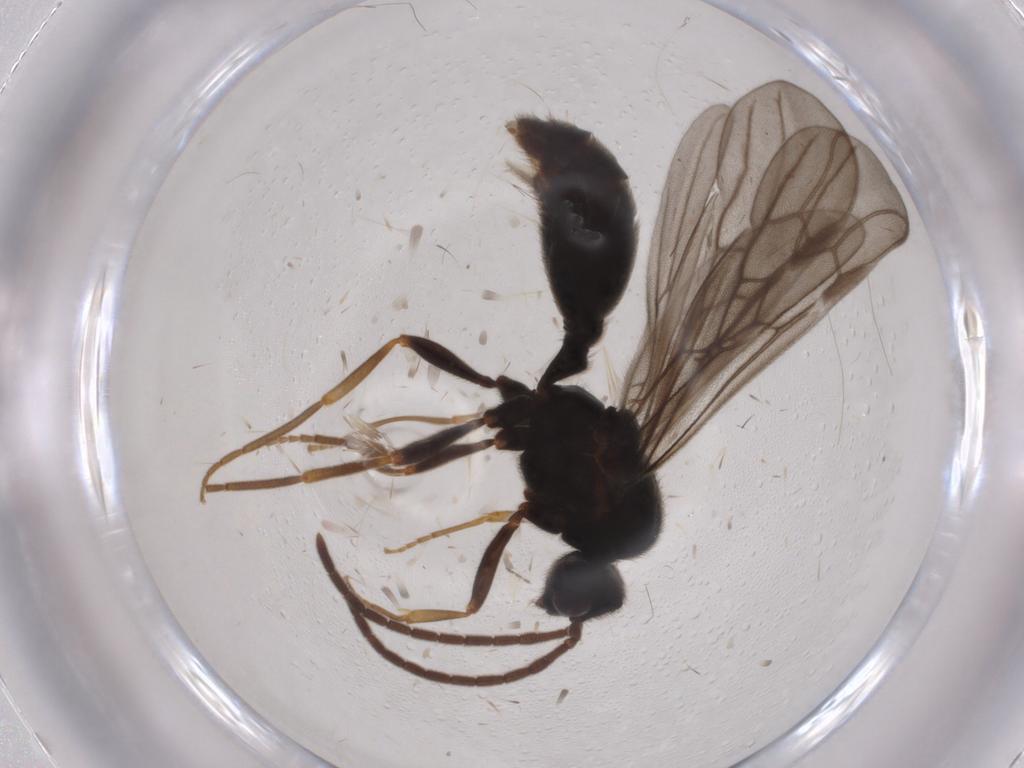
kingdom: Animalia
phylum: Arthropoda
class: Insecta
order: Hymenoptera
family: Formicidae
